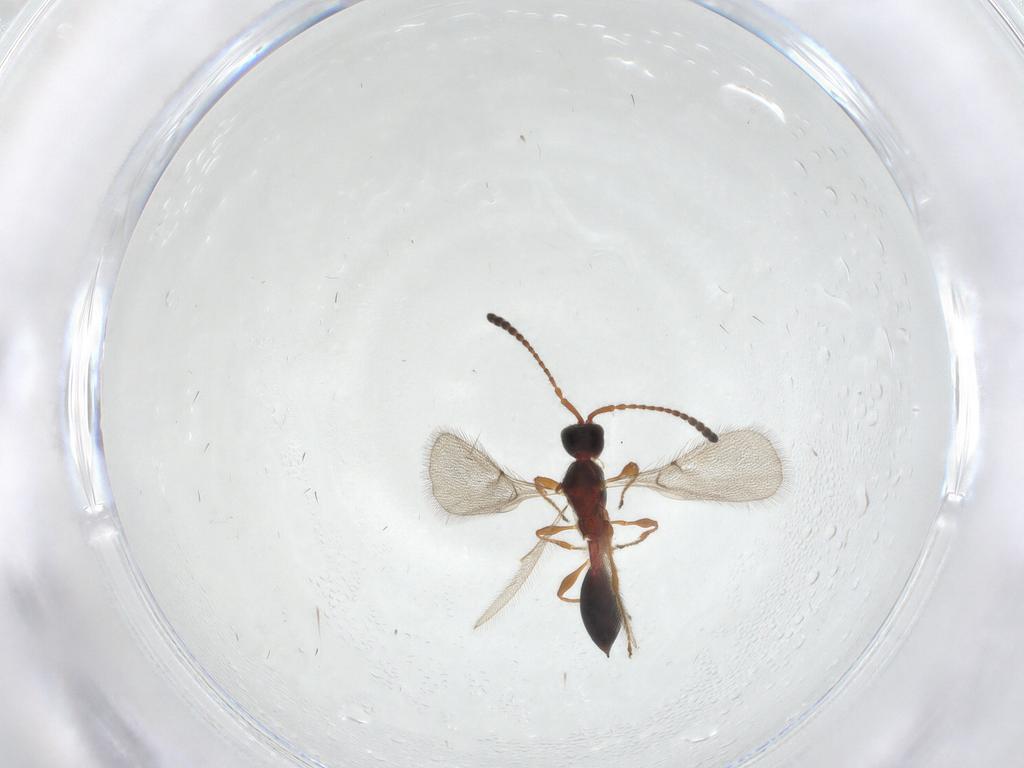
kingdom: Animalia
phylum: Arthropoda
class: Insecta
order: Hymenoptera
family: Diapriidae
